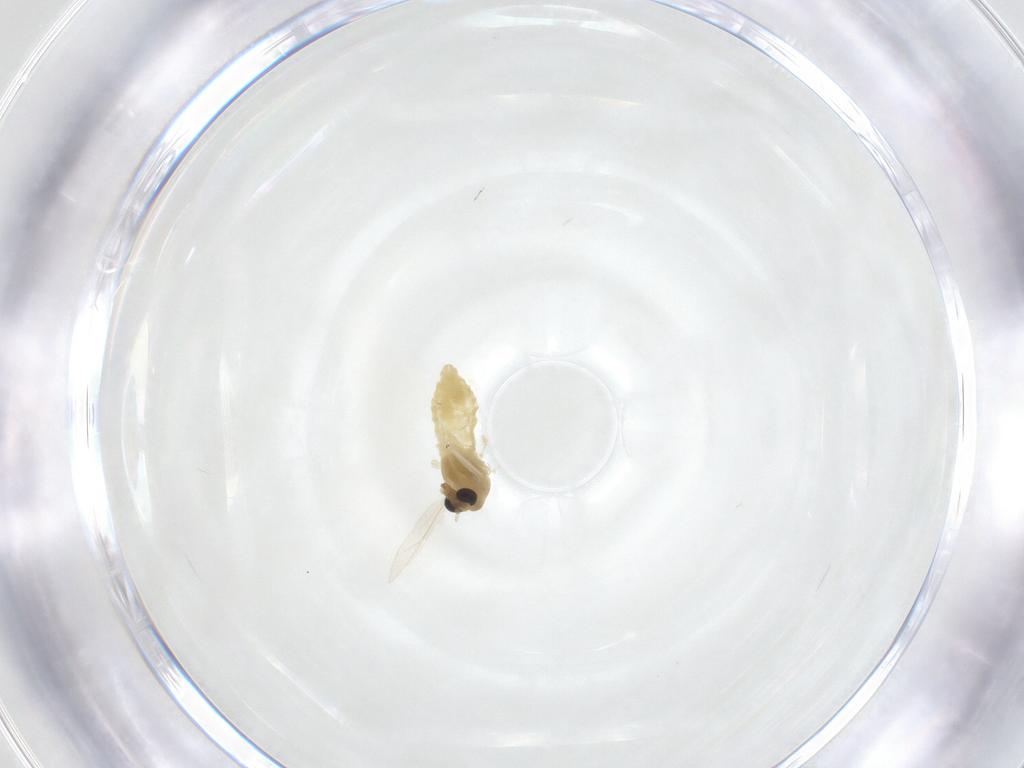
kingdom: Animalia
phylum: Arthropoda
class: Insecta
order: Diptera
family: Chironomidae
